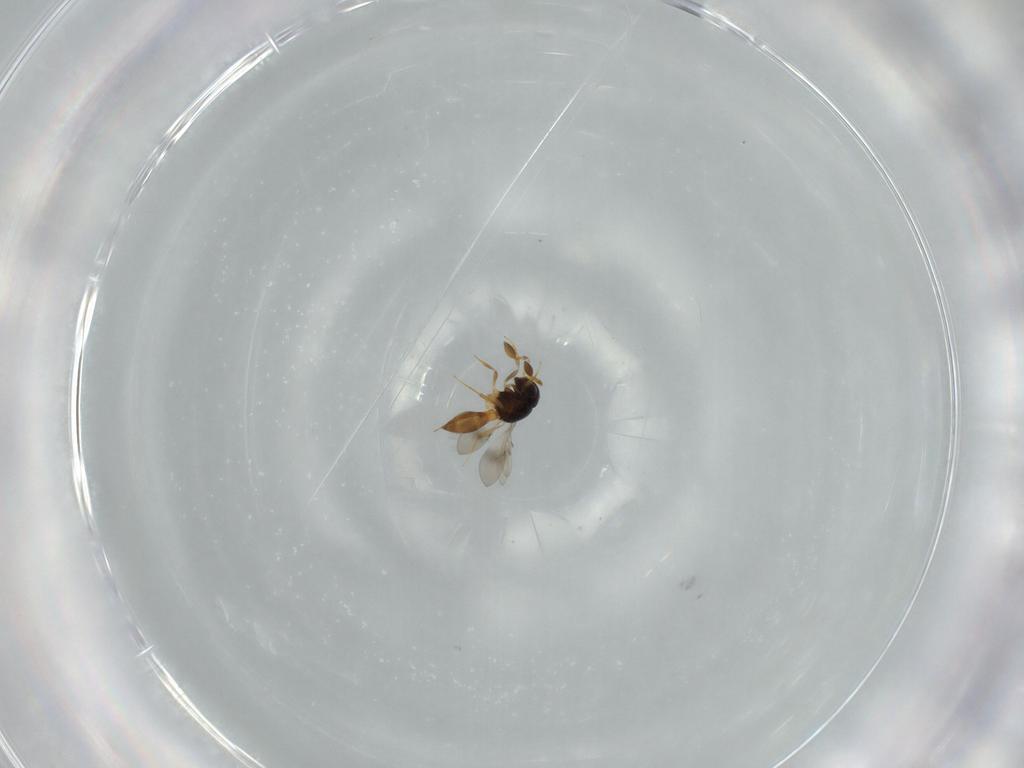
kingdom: Animalia
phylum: Arthropoda
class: Insecta
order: Hymenoptera
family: Scelionidae
